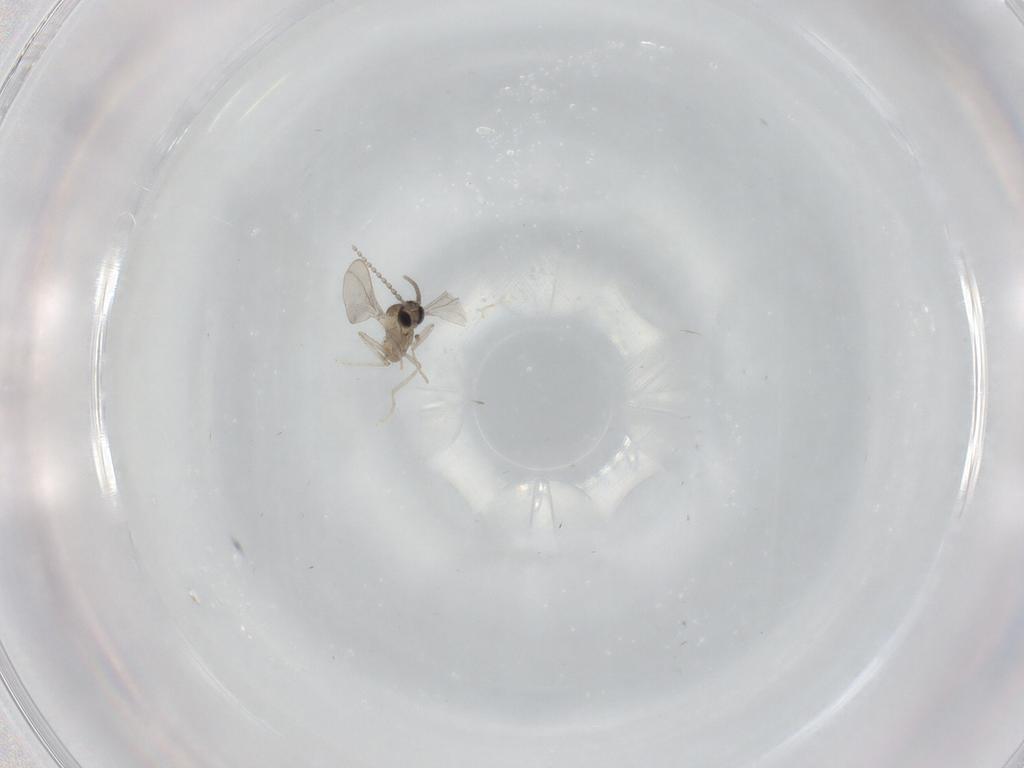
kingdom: Animalia
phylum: Arthropoda
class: Insecta
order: Diptera
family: Cecidomyiidae
